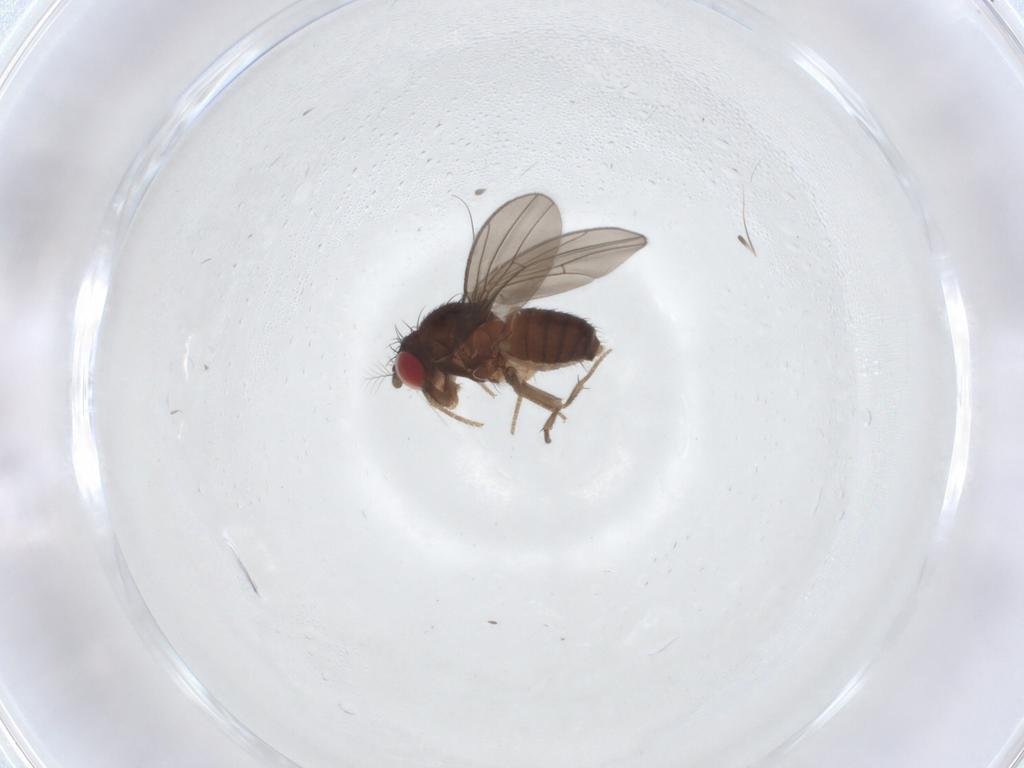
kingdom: Animalia
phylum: Arthropoda
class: Insecta
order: Diptera
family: Drosophilidae
